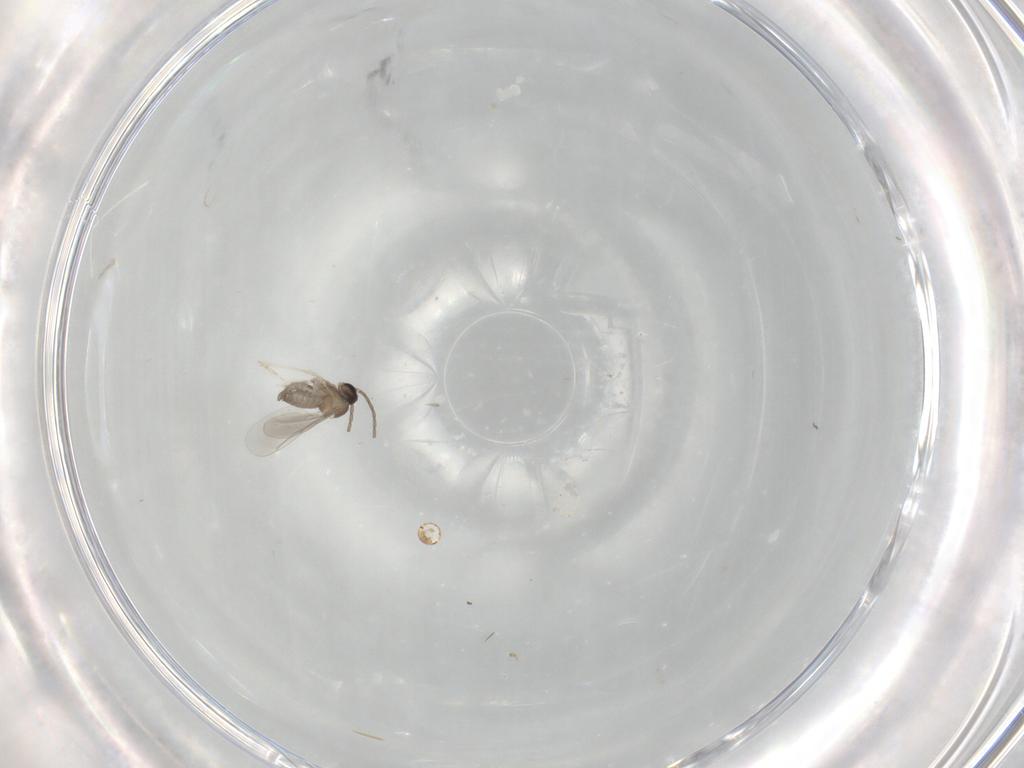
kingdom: Animalia
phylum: Arthropoda
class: Insecta
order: Diptera
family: Cecidomyiidae
